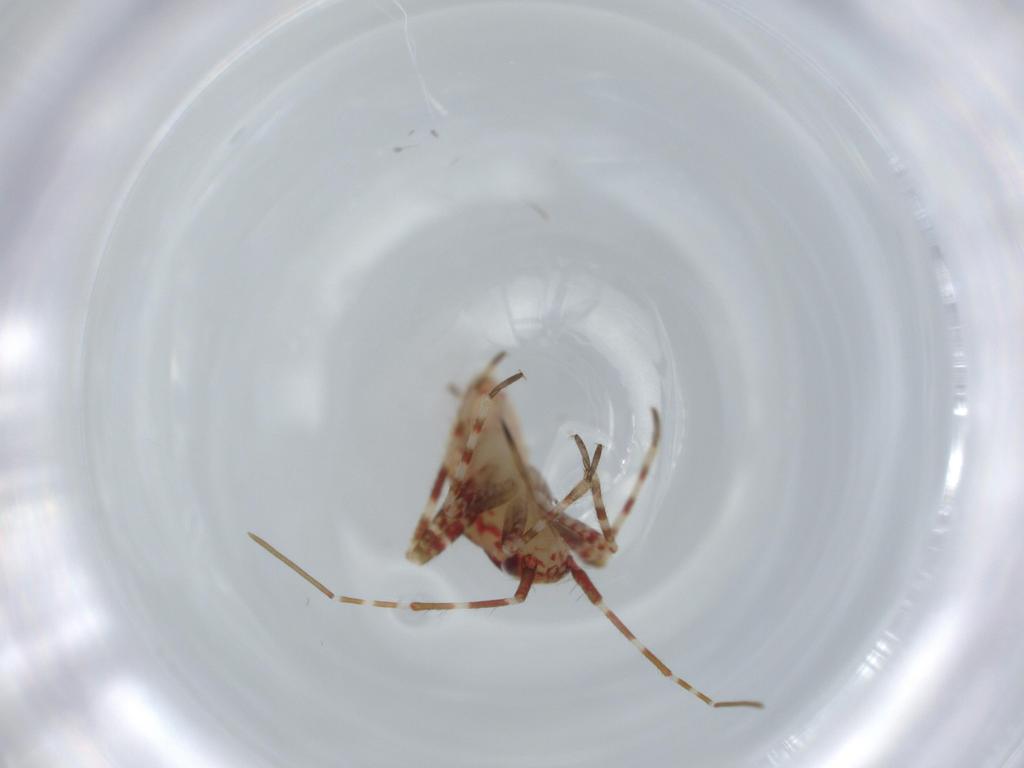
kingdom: Animalia
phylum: Arthropoda
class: Insecta
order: Hemiptera
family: Miridae
